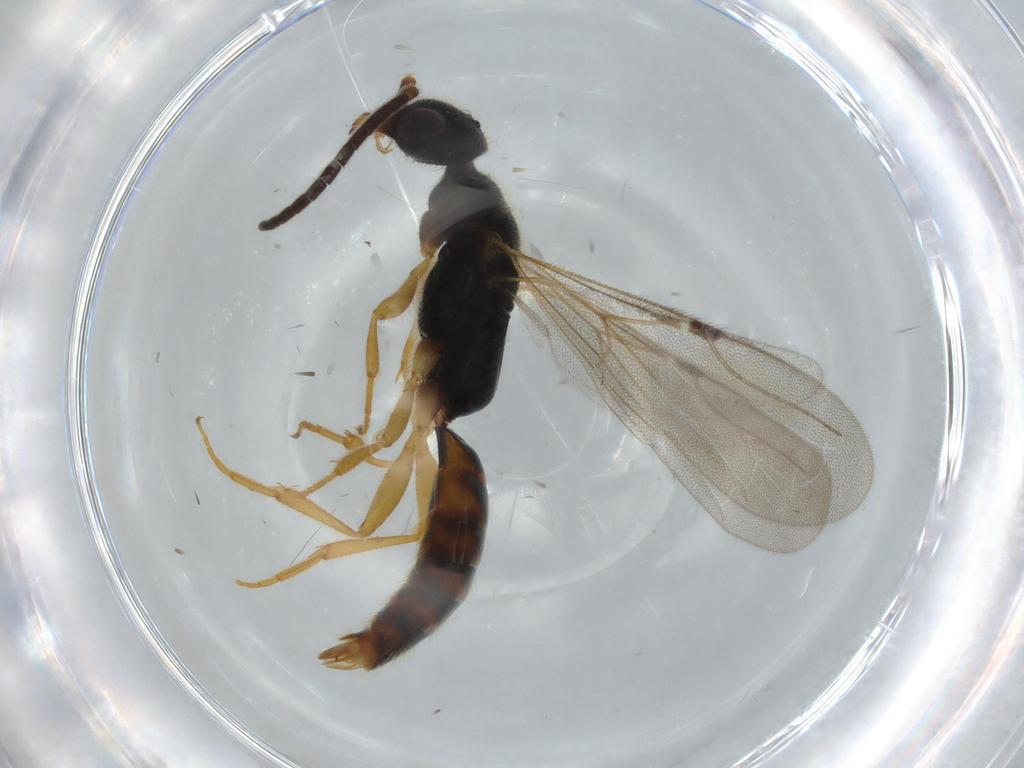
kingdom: Animalia
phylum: Arthropoda
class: Insecta
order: Hymenoptera
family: Bethylidae
